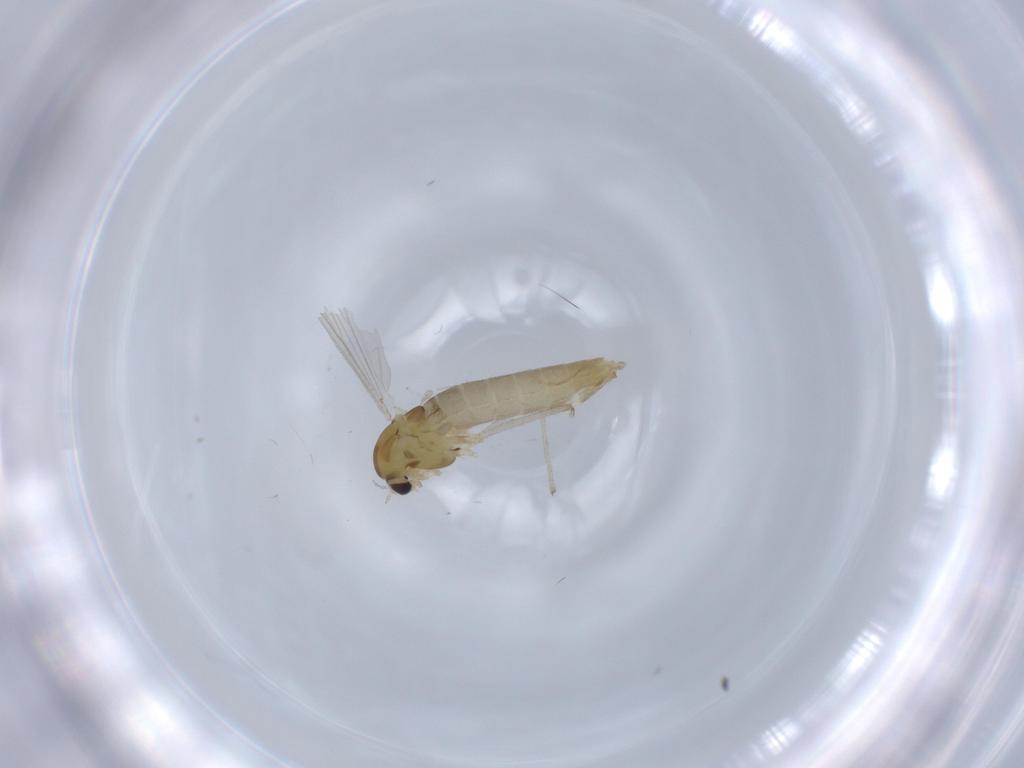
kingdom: Animalia
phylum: Arthropoda
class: Insecta
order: Diptera
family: Chironomidae
